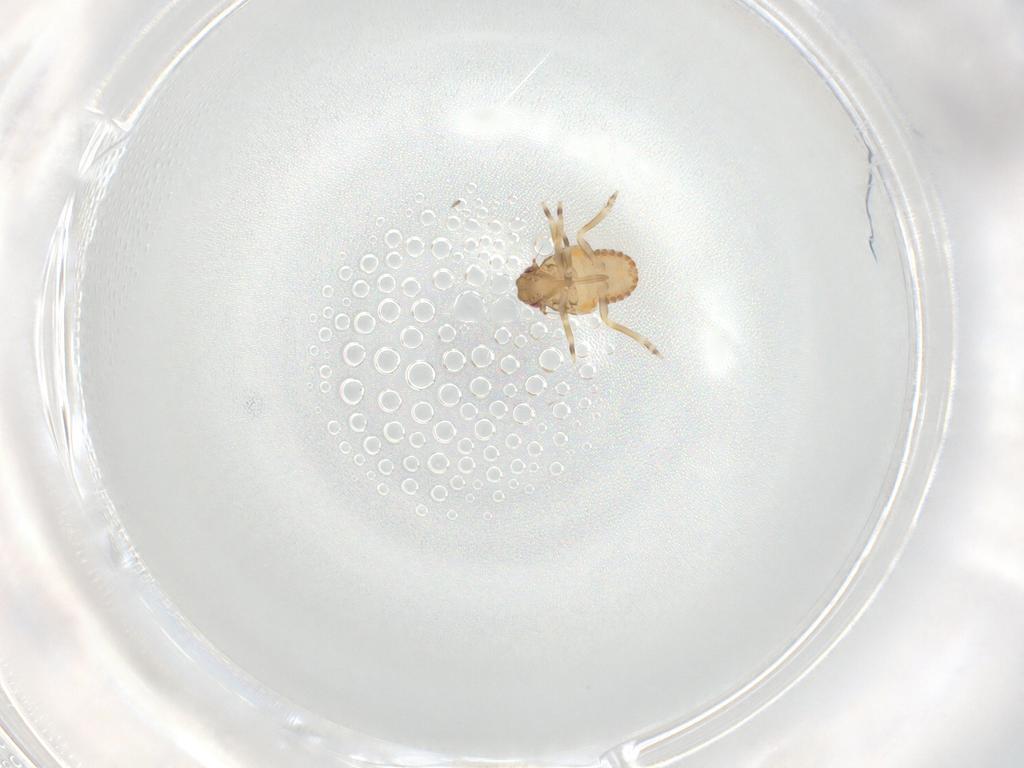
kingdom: Animalia
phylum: Arthropoda
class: Insecta
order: Hemiptera
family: Flatidae
